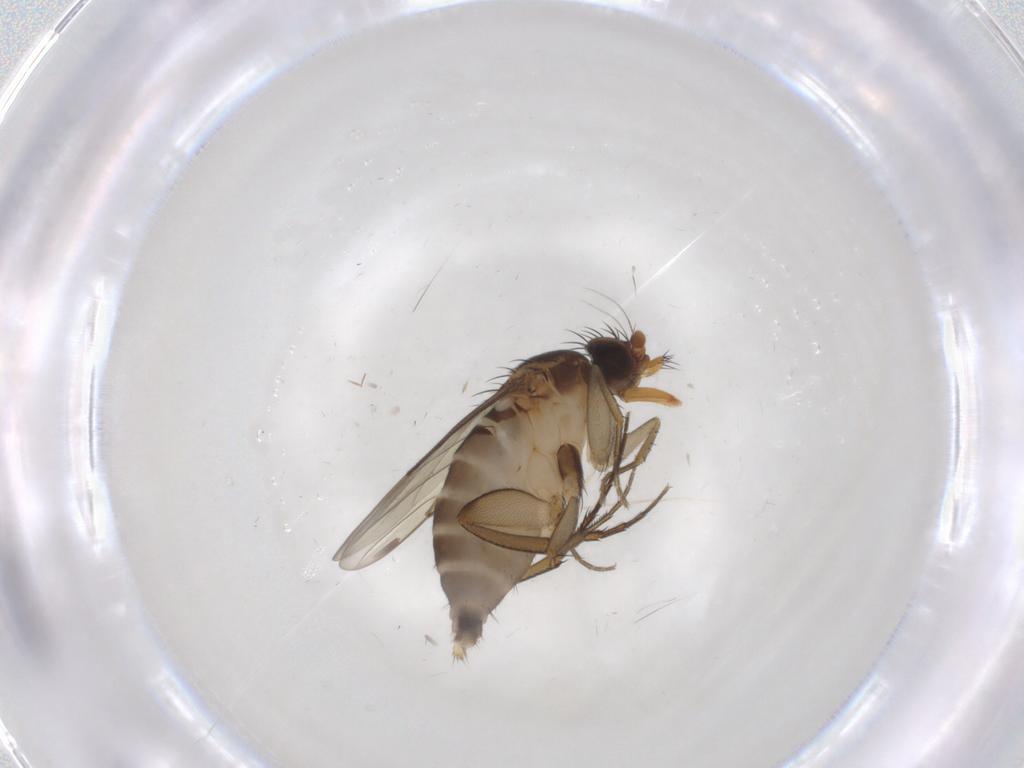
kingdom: Animalia
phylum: Arthropoda
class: Insecta
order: Diptera
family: Phoridae
